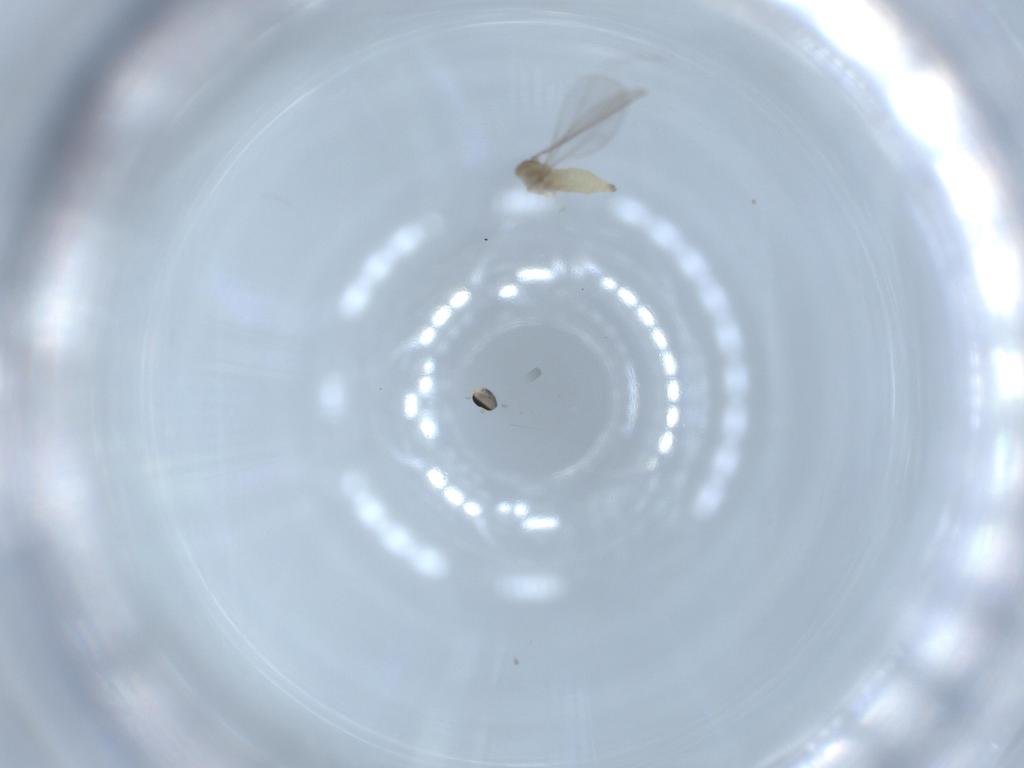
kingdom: Animalia
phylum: Arthropoda
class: Insecta
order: Diptera
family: Cecidomyiidae
